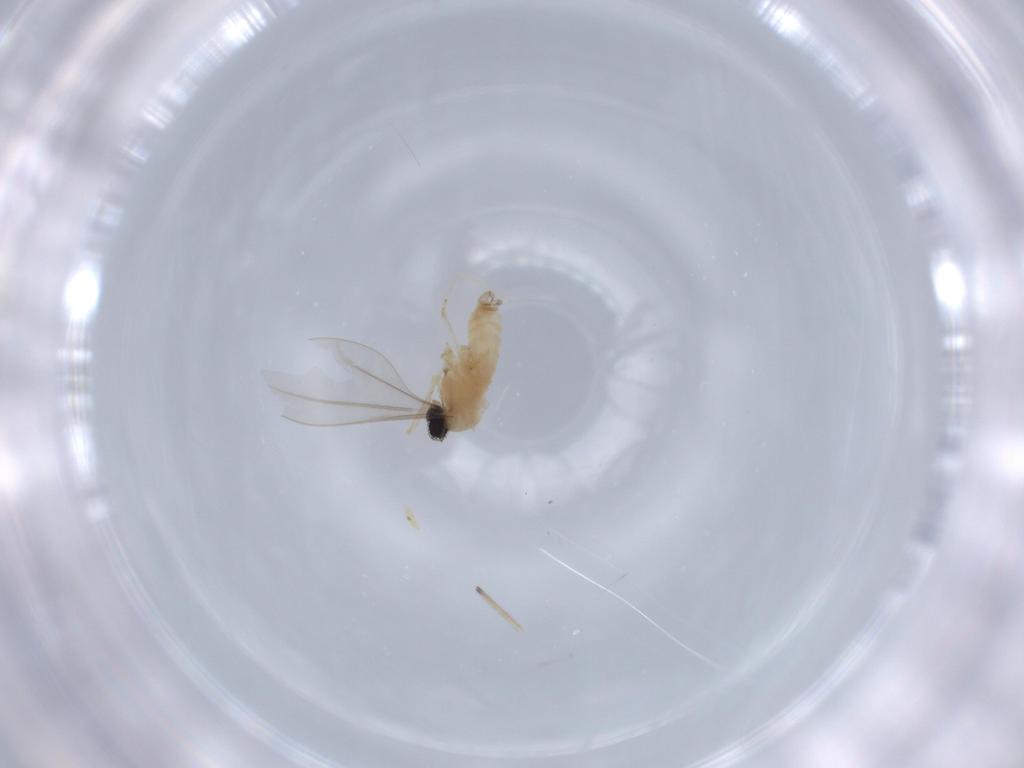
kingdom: Animalia
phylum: Arthropoda
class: Insecta
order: Diptera
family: Cecidomyiidae
